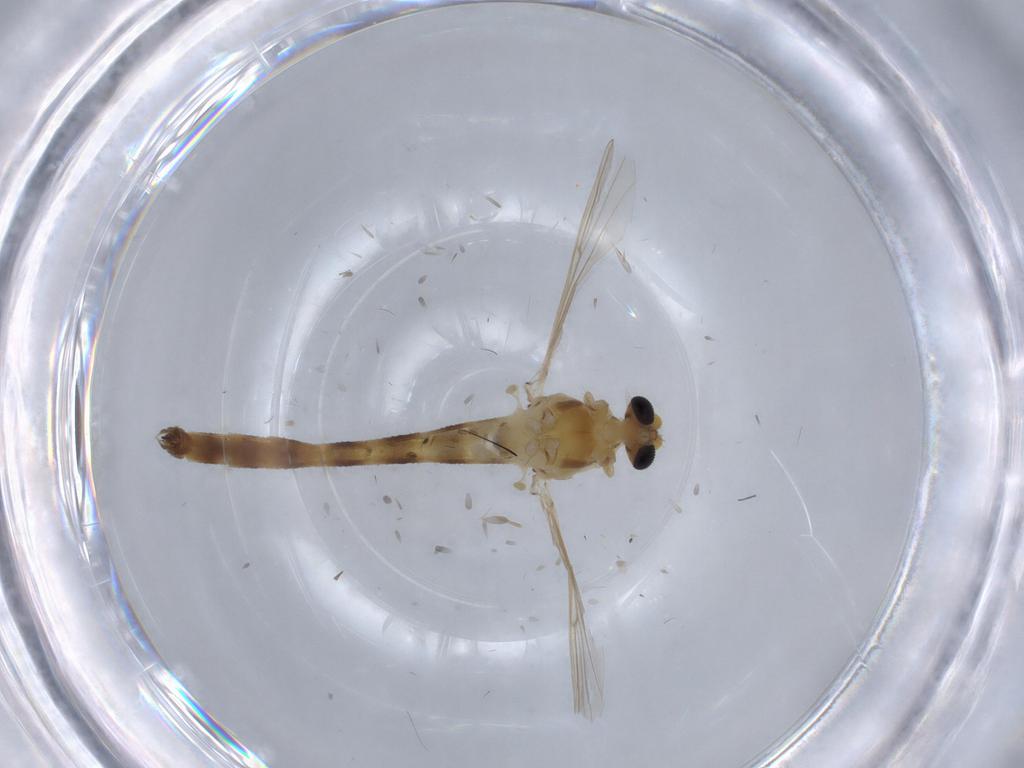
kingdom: Animalia
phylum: Arthropoda
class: Insecta
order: Diptera
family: Chironomidae
